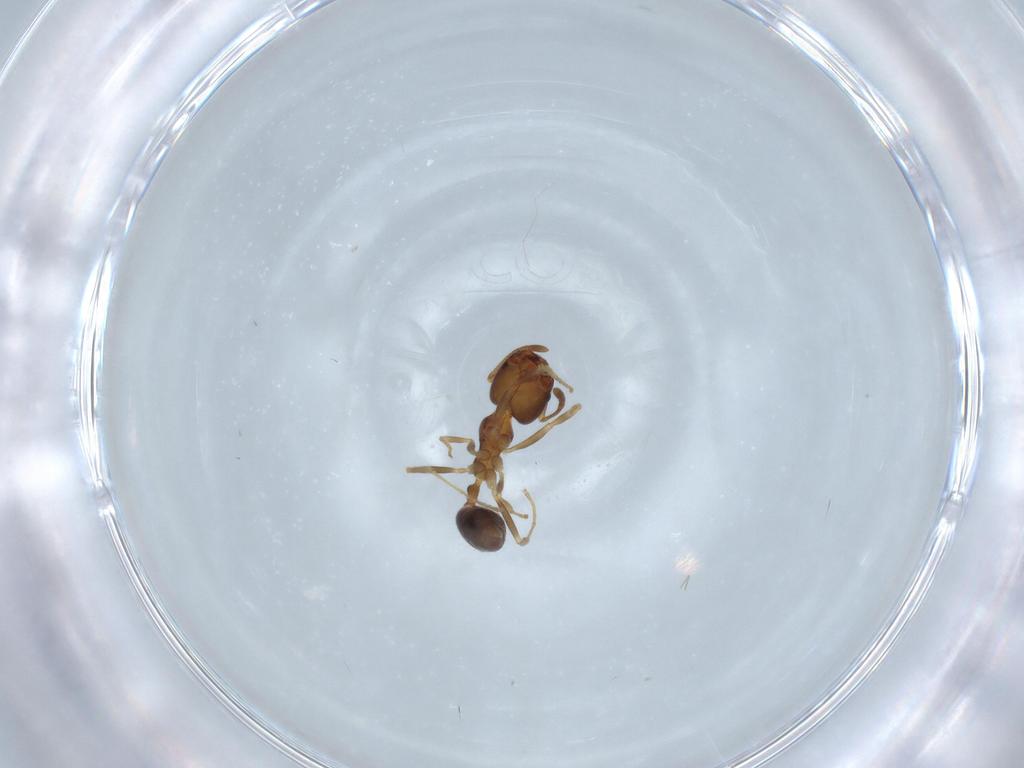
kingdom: Animalia
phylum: Arthropoda
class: Insecta
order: Hymenoptera
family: Formicidae
